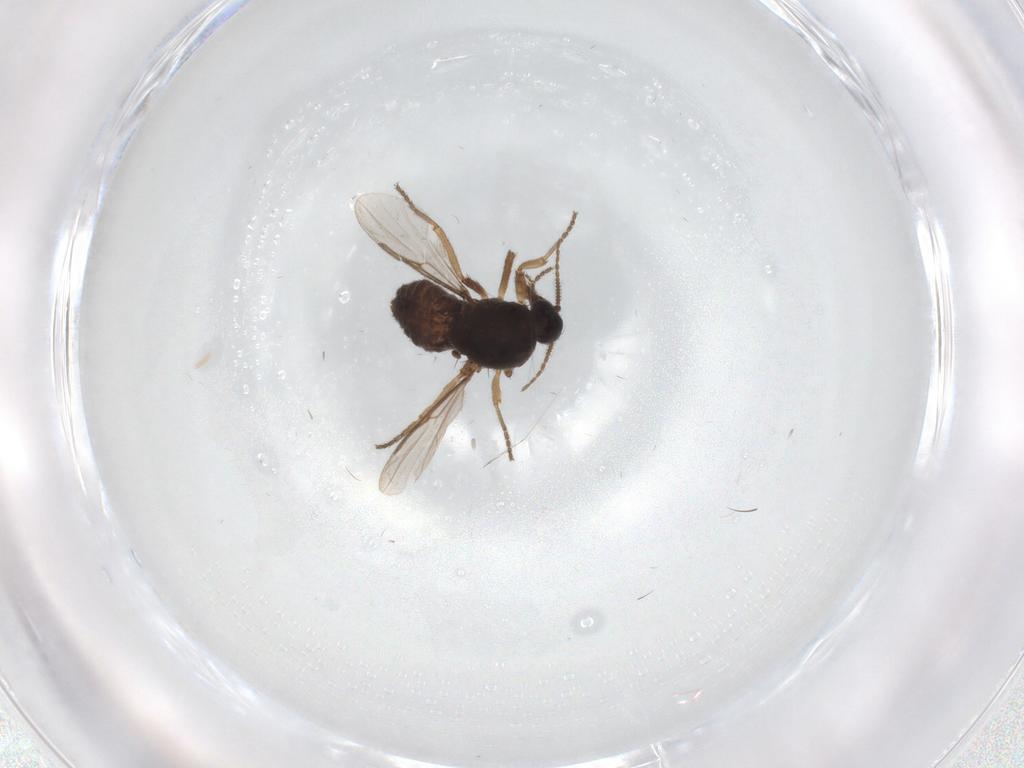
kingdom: Animalia
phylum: Arthropoda
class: Insecta
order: Diptera
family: Ceratopogonidae
